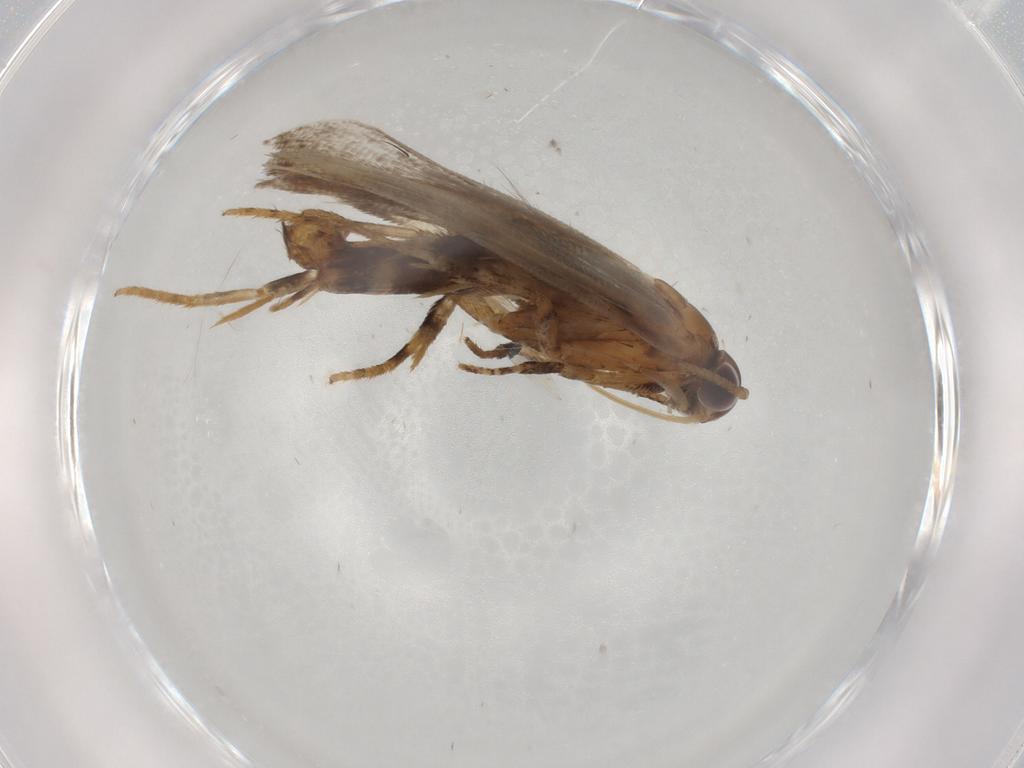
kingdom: Animalia
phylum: Arthropoda
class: Insecta
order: Lepidoptera
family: Gelechiidae
